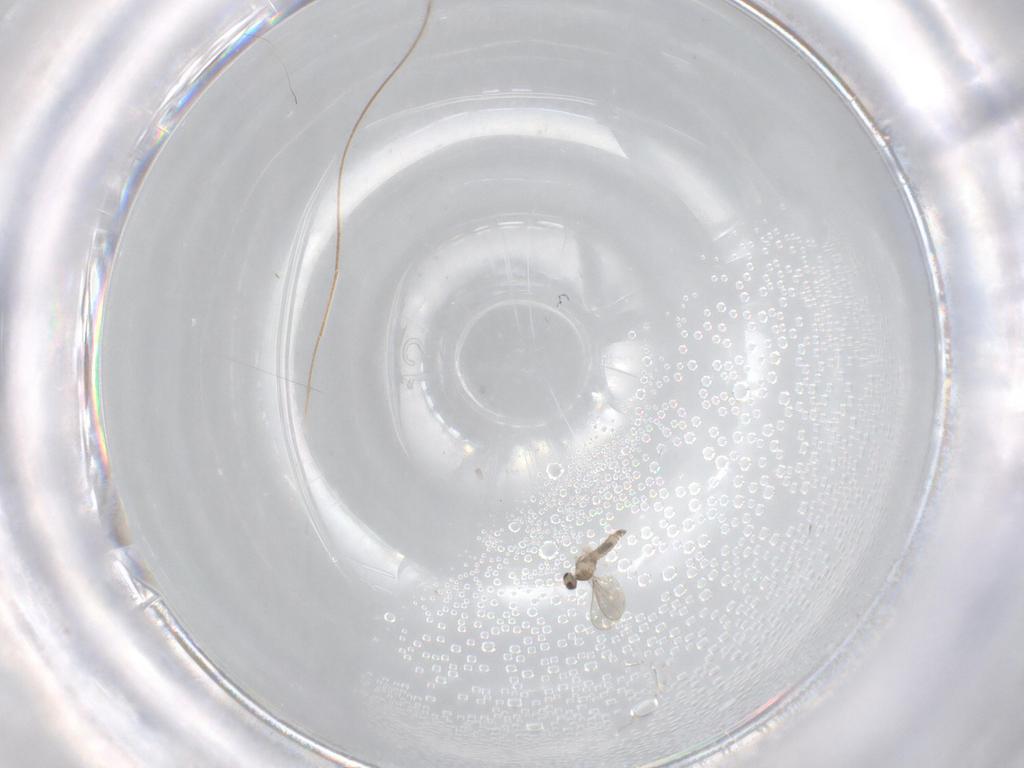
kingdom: Animalia
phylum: Arthropoda
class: Insecta
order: Diptera
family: Cecidomyiidae
